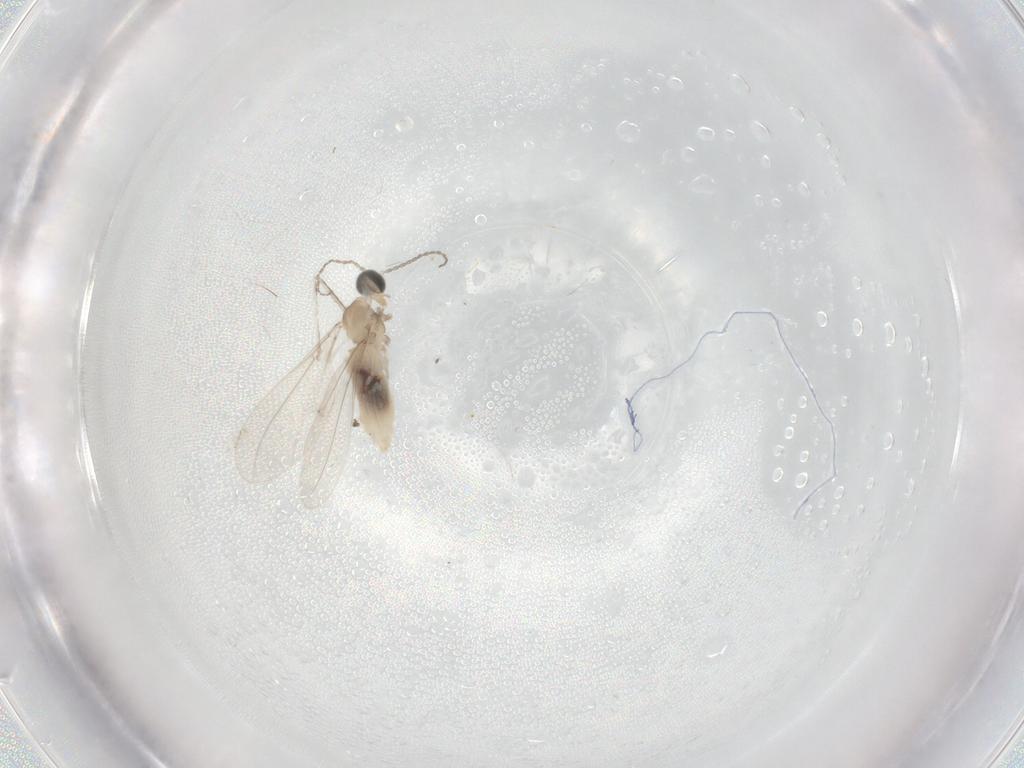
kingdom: Animalia
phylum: Arthropoda
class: Insecta
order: Diptera
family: Cecidomyiidae
